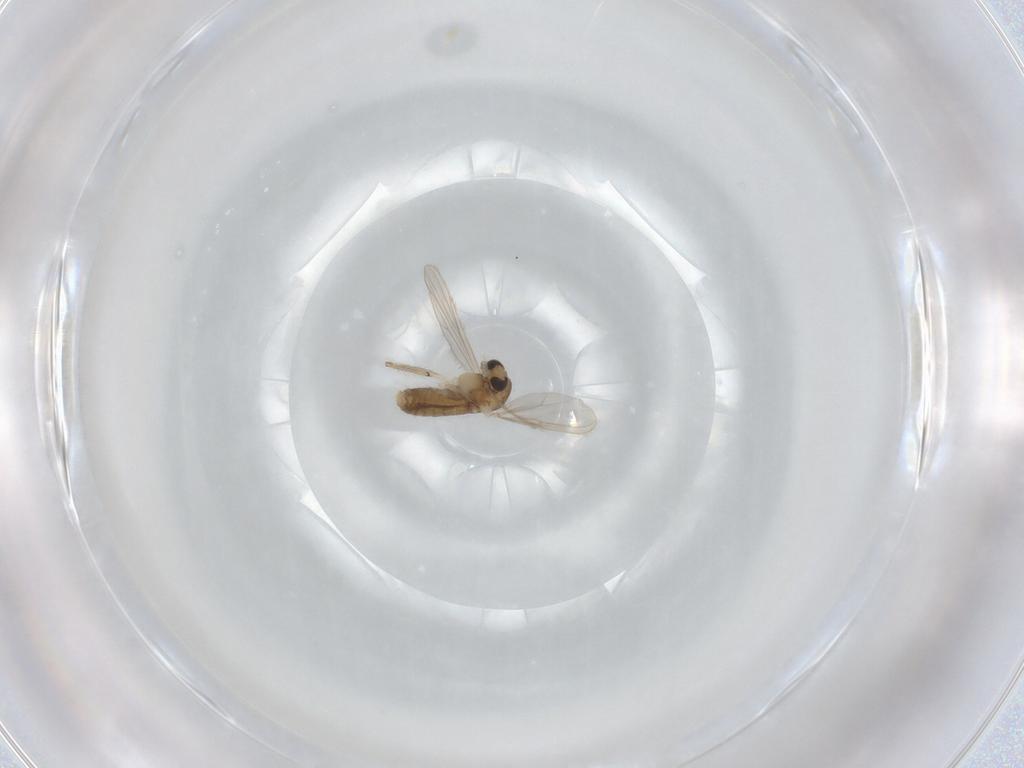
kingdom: Animalia
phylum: Arthropoda
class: Insecta
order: Diptera
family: Chironomidae
